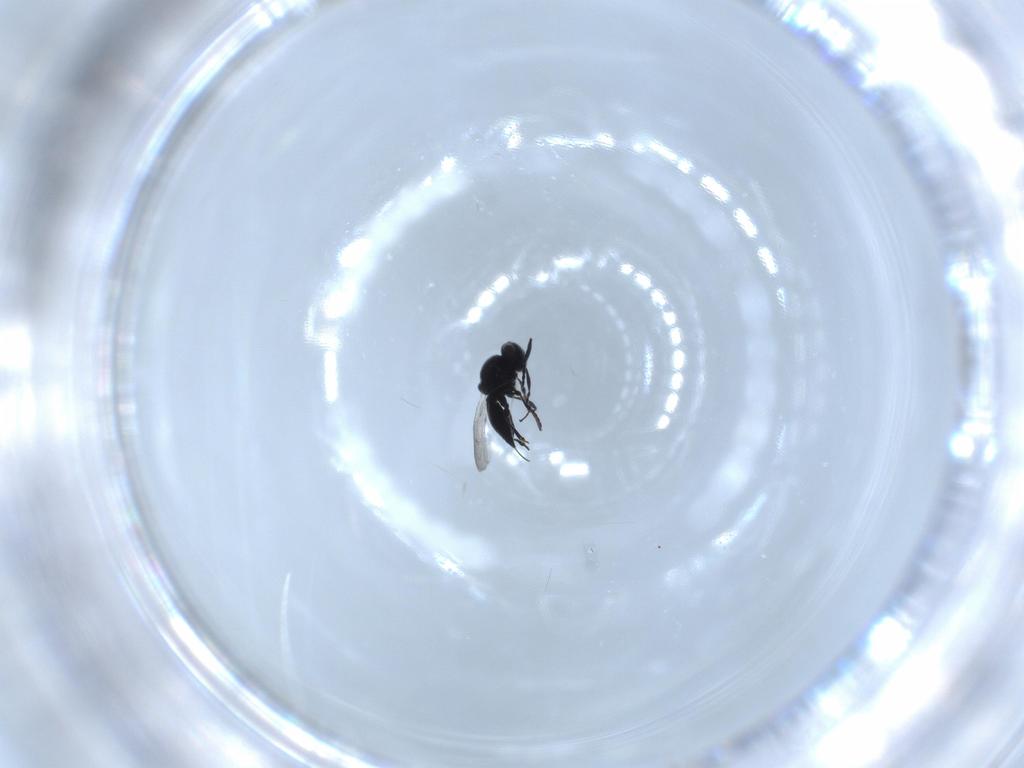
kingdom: Animalia
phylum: Arthropoda
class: Insecta
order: Hymenoptera
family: Platygastridae
